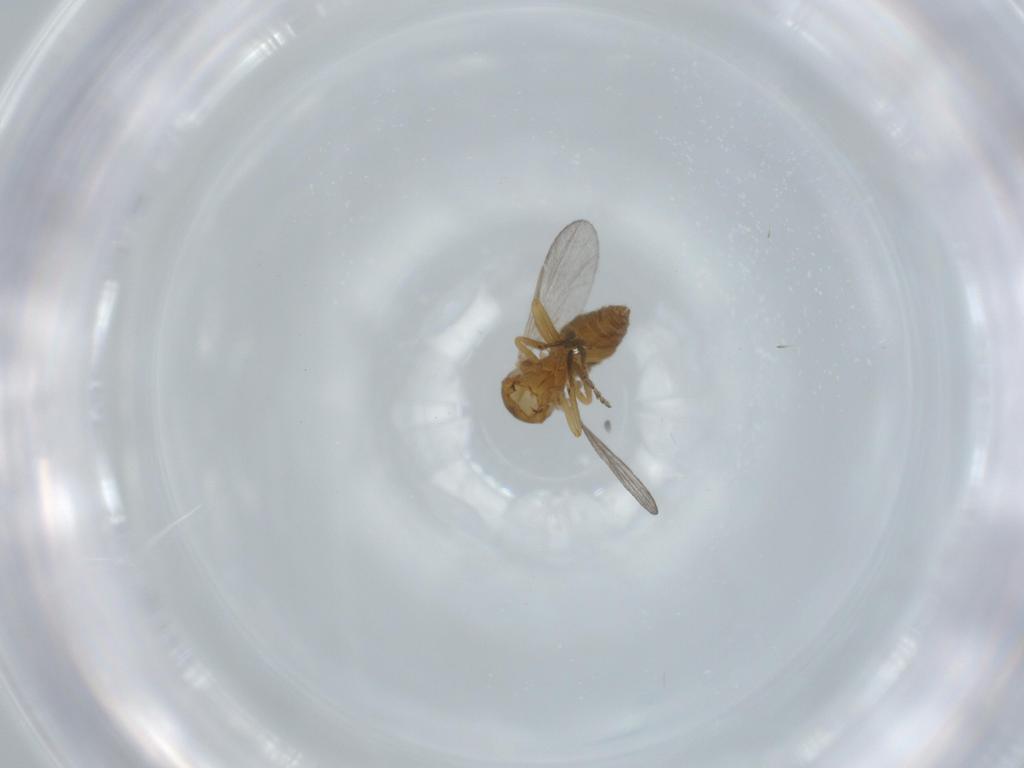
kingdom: Animalia
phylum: Arthropoda
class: Insecta
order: Diptera
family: Ceratopogonidae
